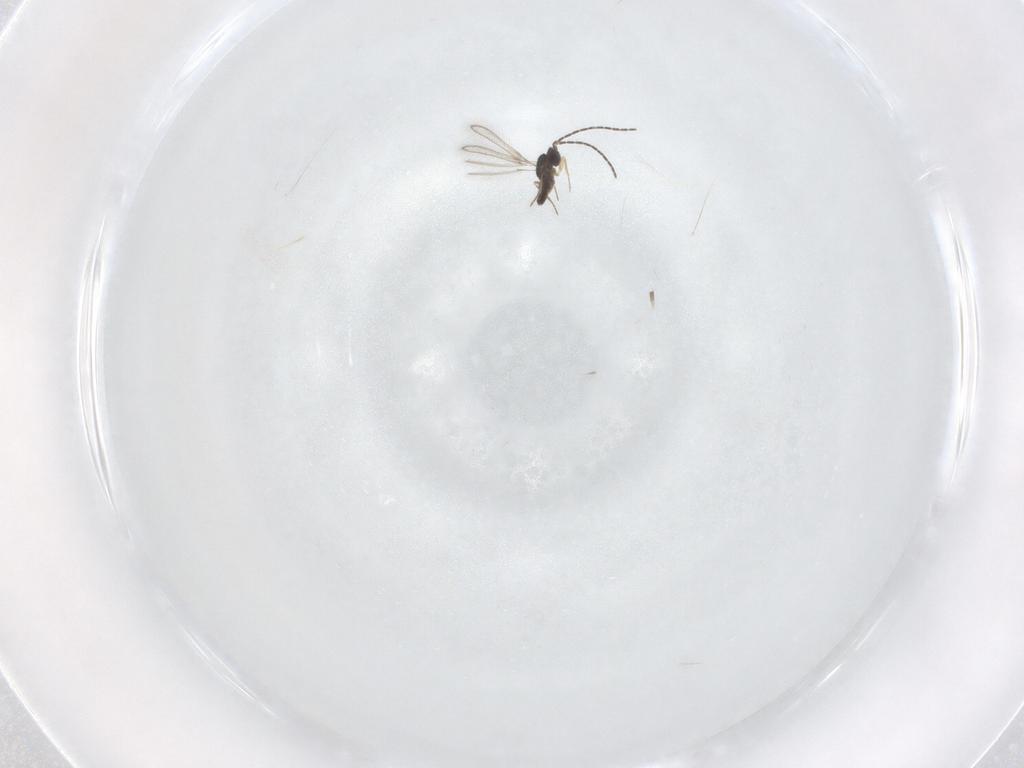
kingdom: Animalia
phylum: Arthropoda
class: Insecta
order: Hymenoptera
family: Mymaridae
